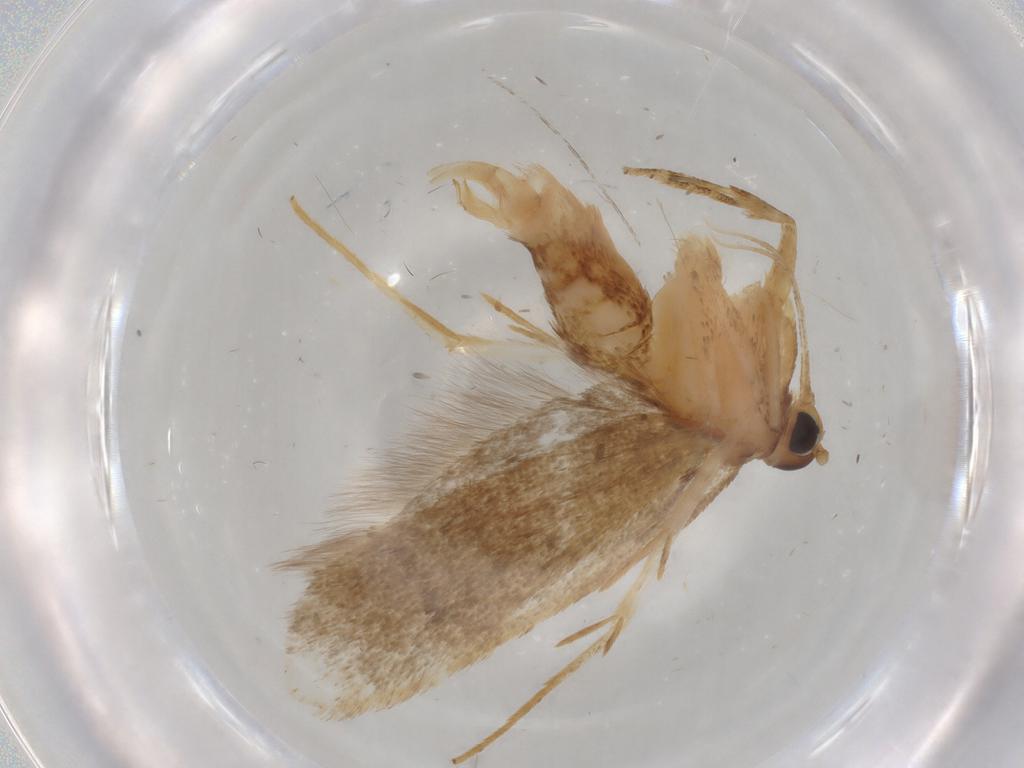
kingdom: Animalia
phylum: Arthropoda
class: Insecta
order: Lepidoptera
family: Lecithoceridae
